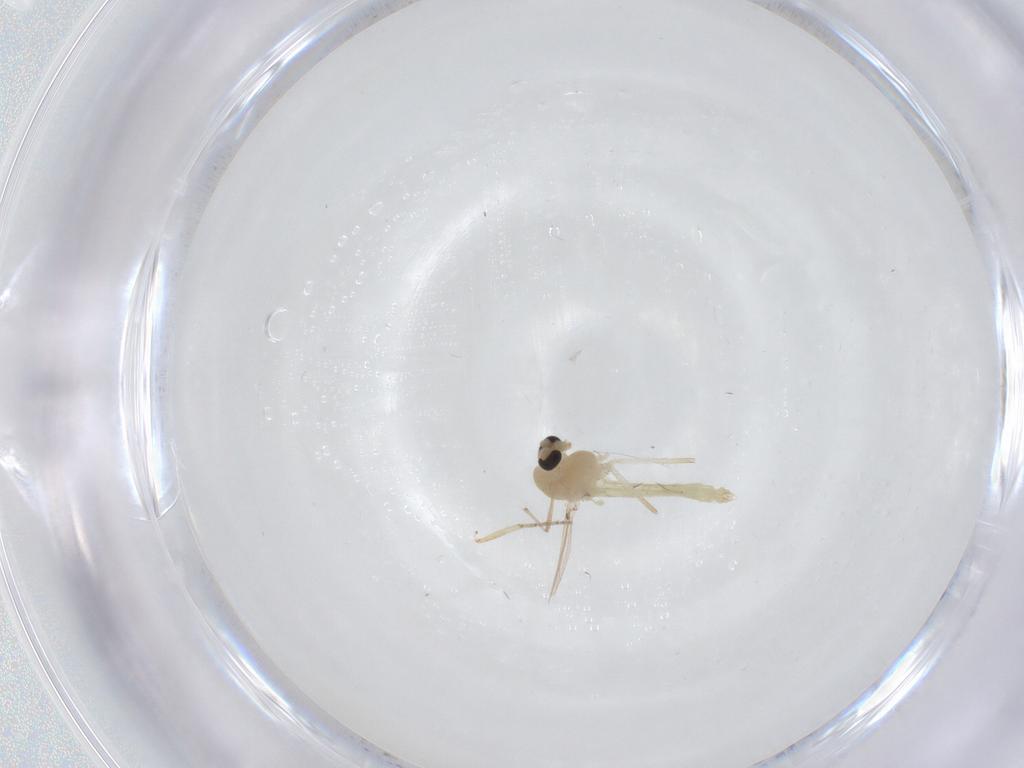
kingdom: Animalia
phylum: Arthropoda
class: Insecta
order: Diptera
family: Chironomidae
